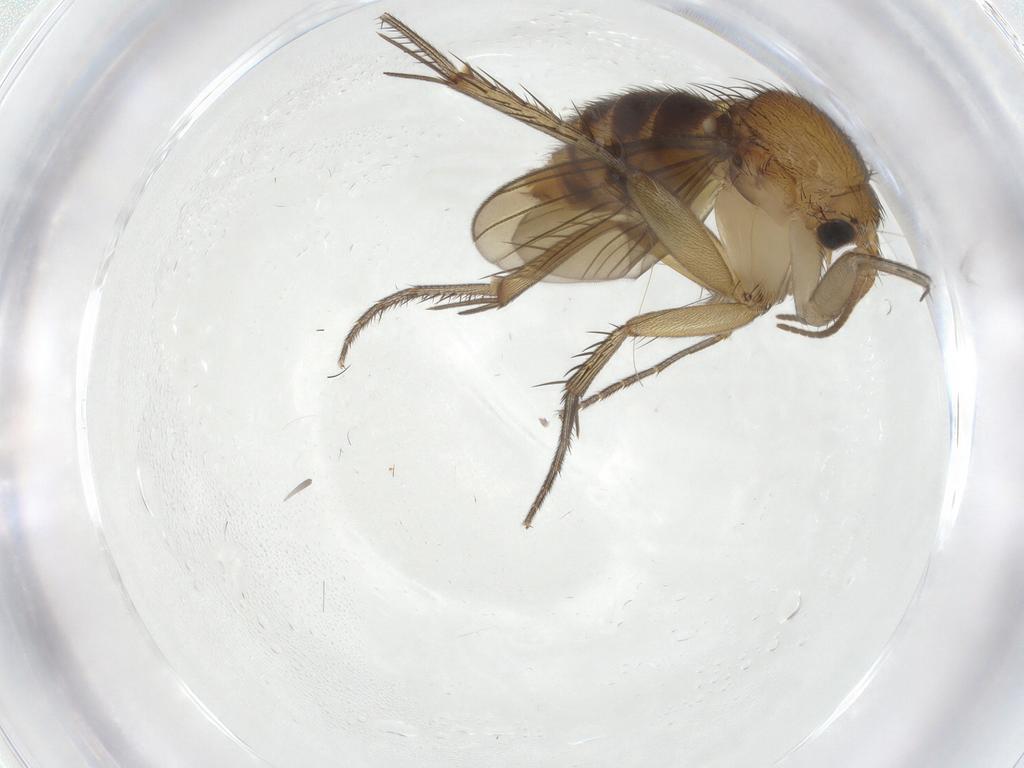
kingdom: Animalia
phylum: Arthropoda
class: Insecta
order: Diptera
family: Mycetophilidae
